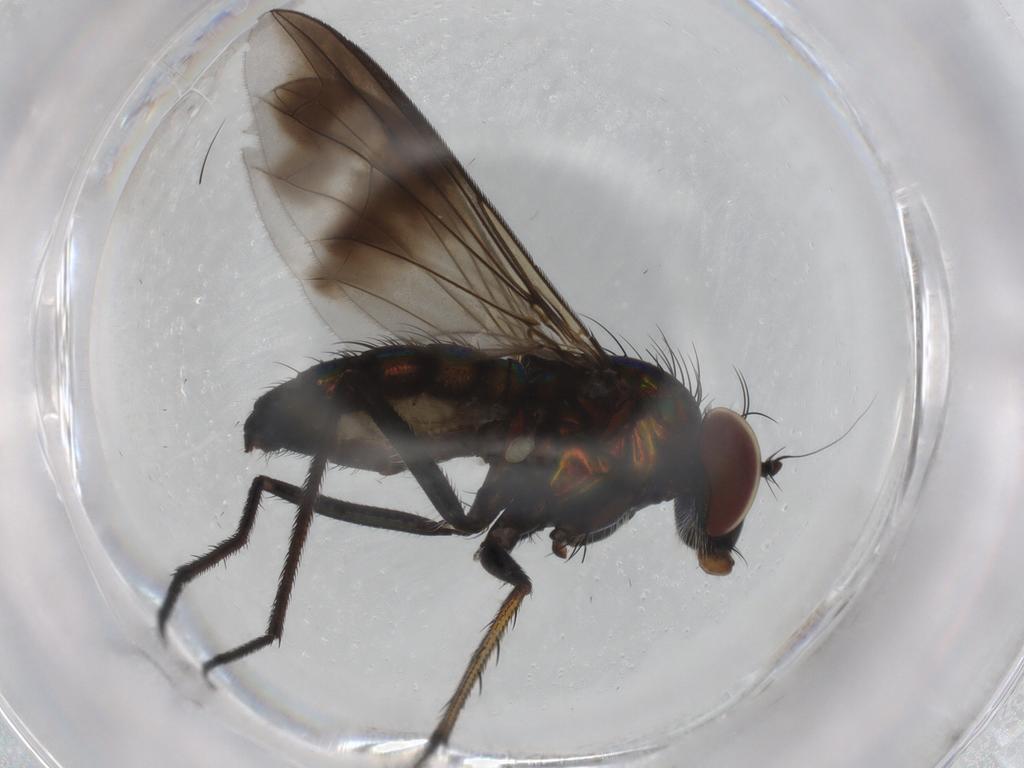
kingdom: Animalia
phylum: Arthropoda
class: Insecta
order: Diptera
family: Dolichopodidae
